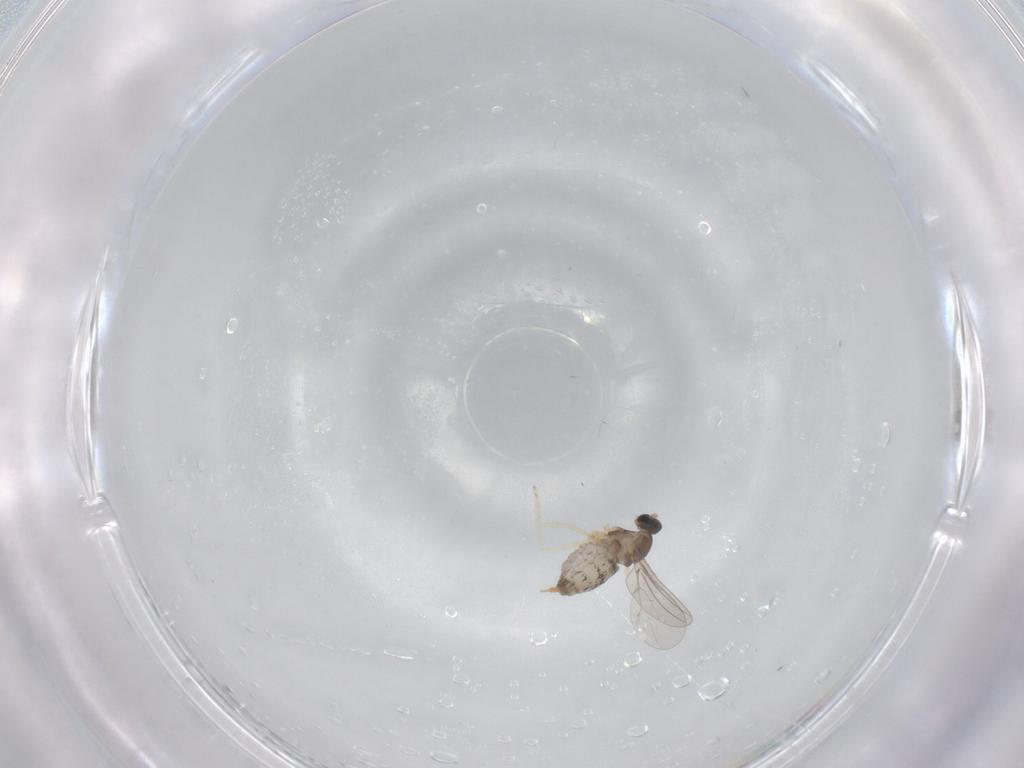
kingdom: Animalia
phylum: Arthropoda
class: Insecta
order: Diptera
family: Cecidomyiidae
